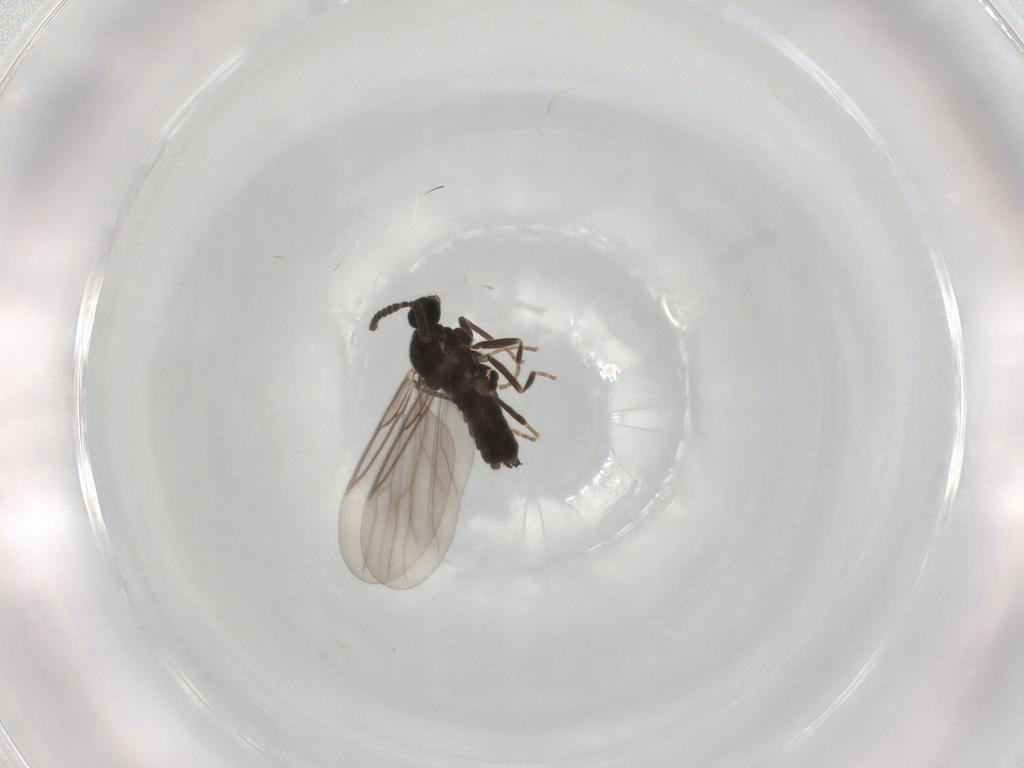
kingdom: Animalia
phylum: Arthropoda
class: Insecta
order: Diptera
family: Scatopsidae
